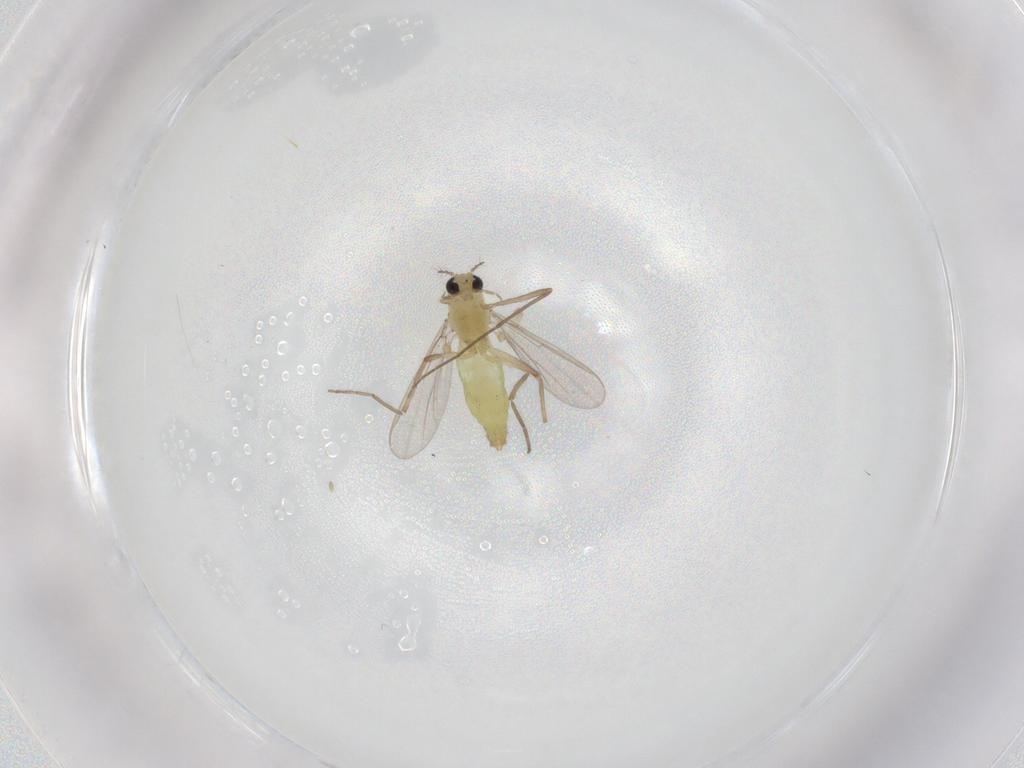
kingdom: Animalia
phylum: Arthropoda
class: Insecta
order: Diptera
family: Chironomidae
